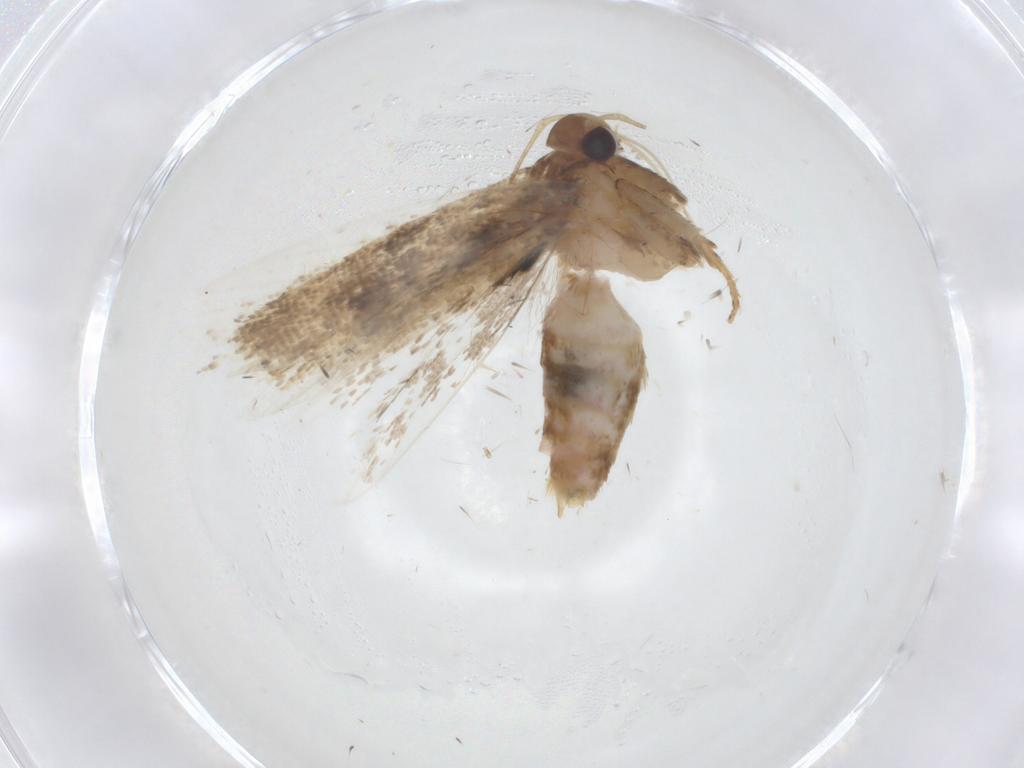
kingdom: Animalia
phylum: Arthropoda
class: Insecta
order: Lepidoptera
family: Gelechiidae
